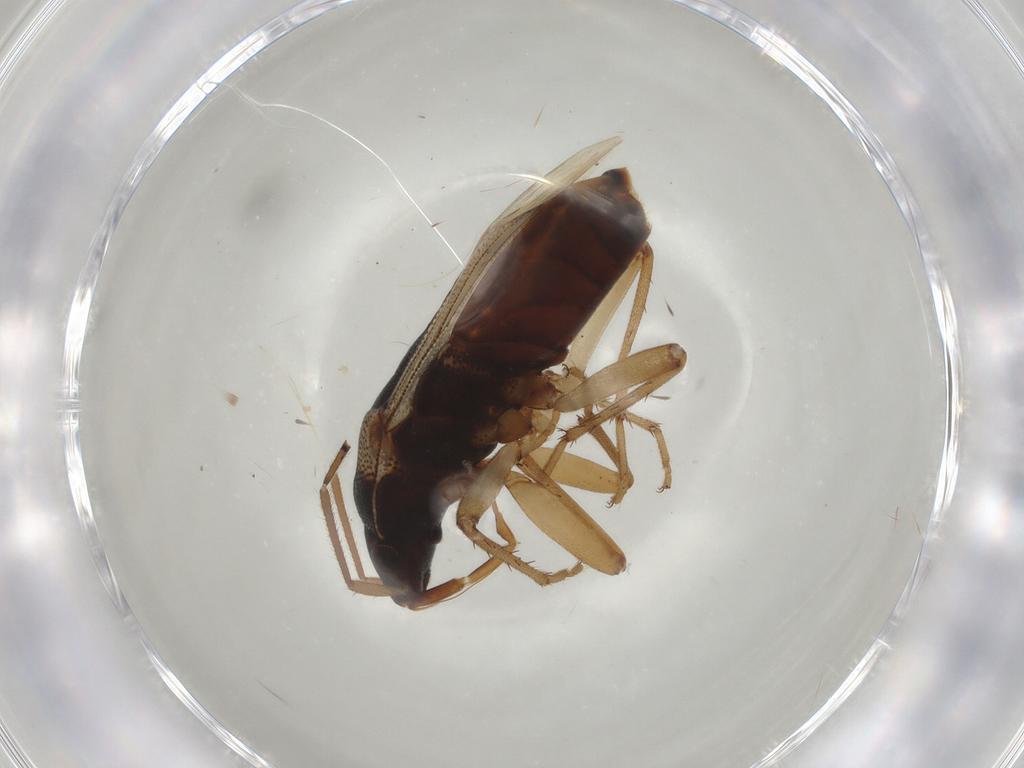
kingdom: Animalia
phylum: Arthropoda
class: Insecta
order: Hemiptera
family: Rhyparochromidae
